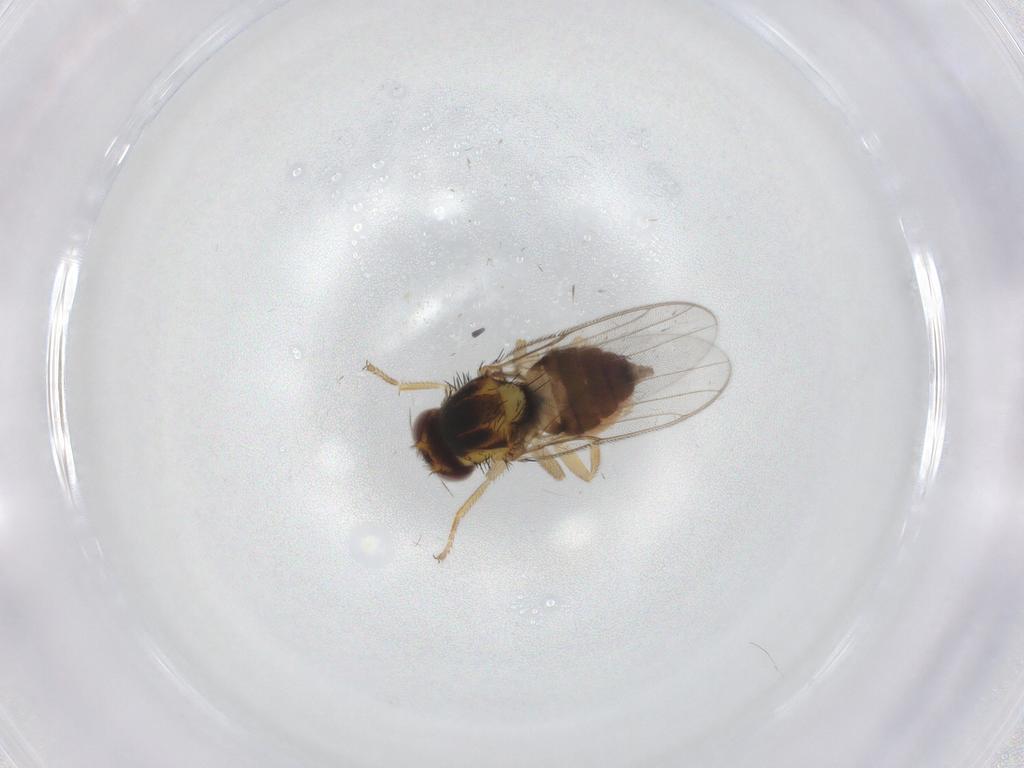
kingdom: Animalia
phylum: Arthropoda
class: Insecta
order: Diptera
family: Chloropidae
